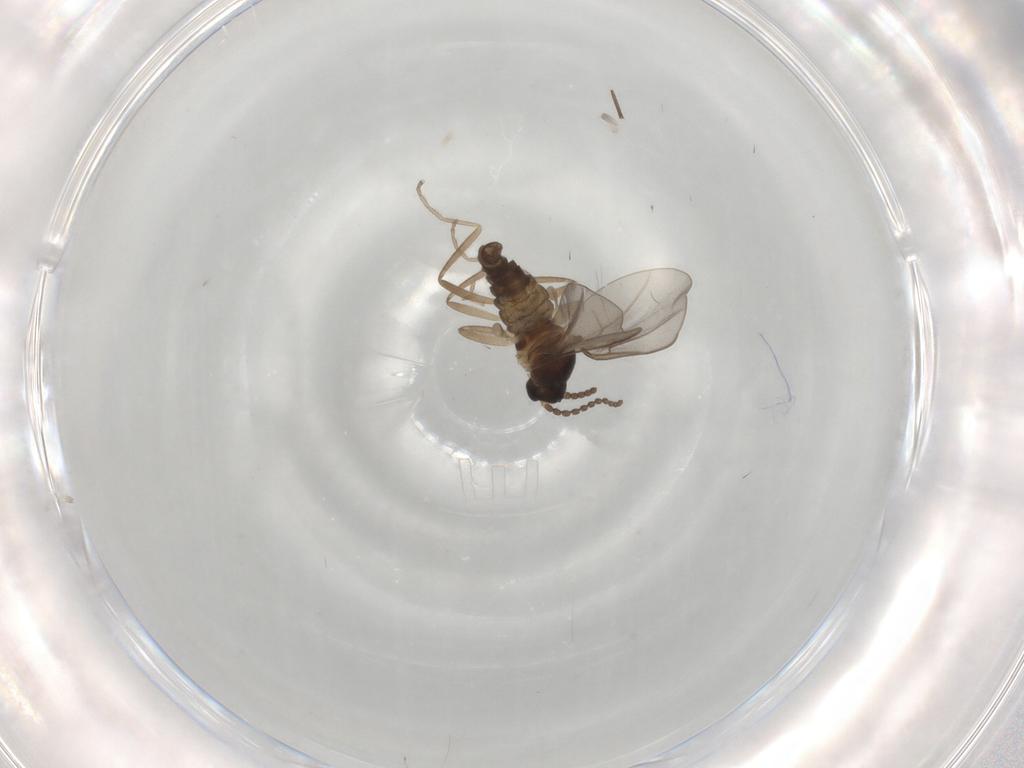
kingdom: Animalia
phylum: Arthropoda
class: Insecta
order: Diptera
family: Sciaridae
